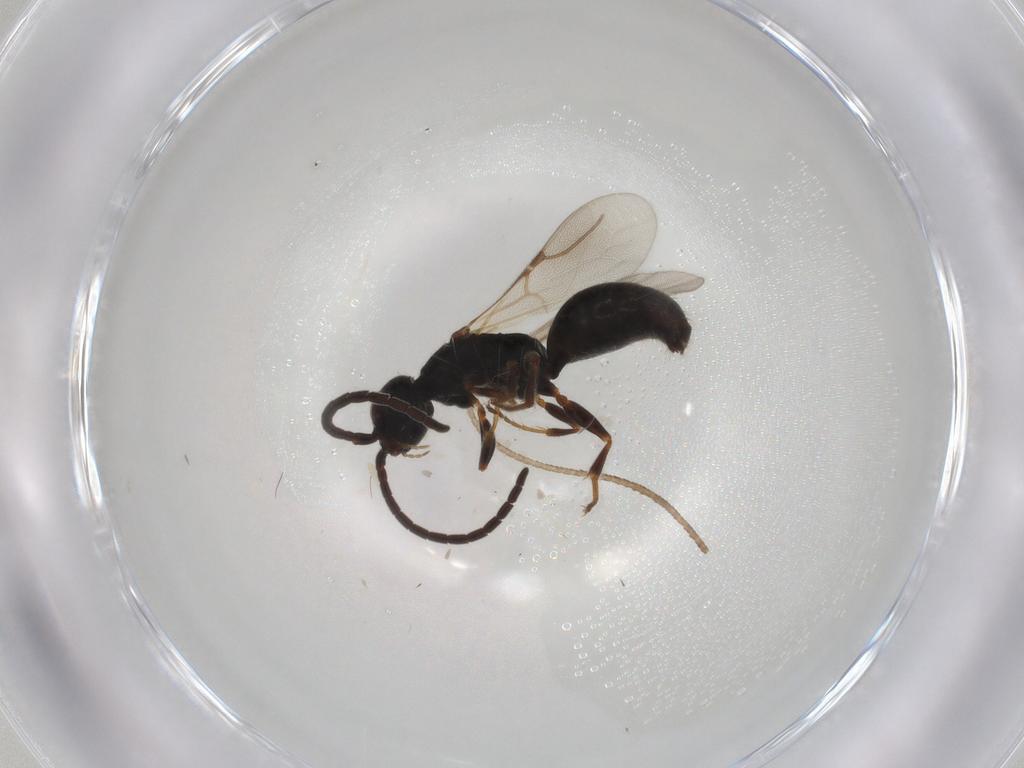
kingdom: Animalia
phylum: Arthropoda
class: Insecta
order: Hymenoptera
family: Bethylidae
